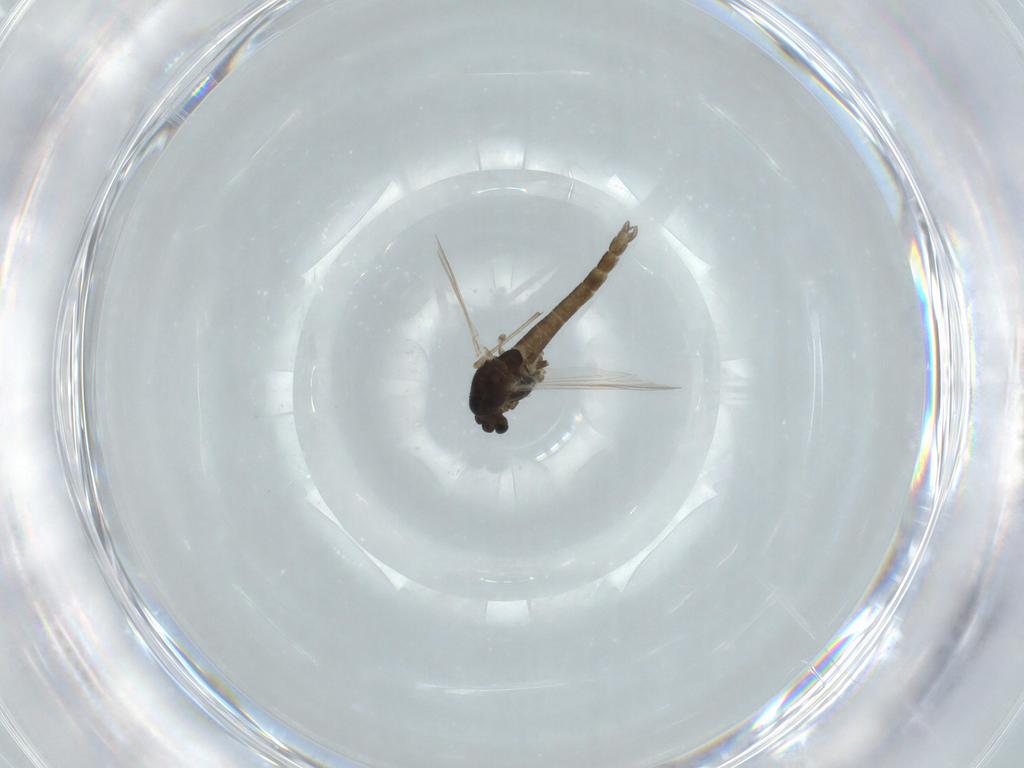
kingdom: Animalia
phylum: Arthropoda
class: Insecta
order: Diptera
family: Chironomidae
